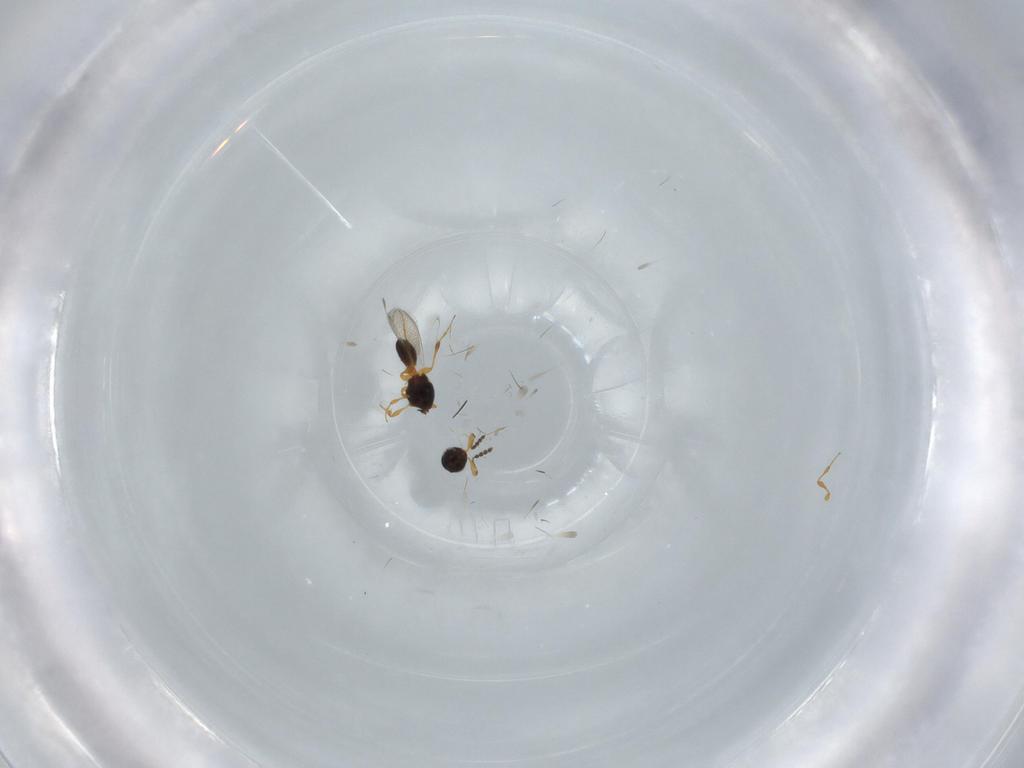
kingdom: Animalia
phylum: Arthropoda
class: Insecta
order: Hymenoptera
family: Platygastridae
